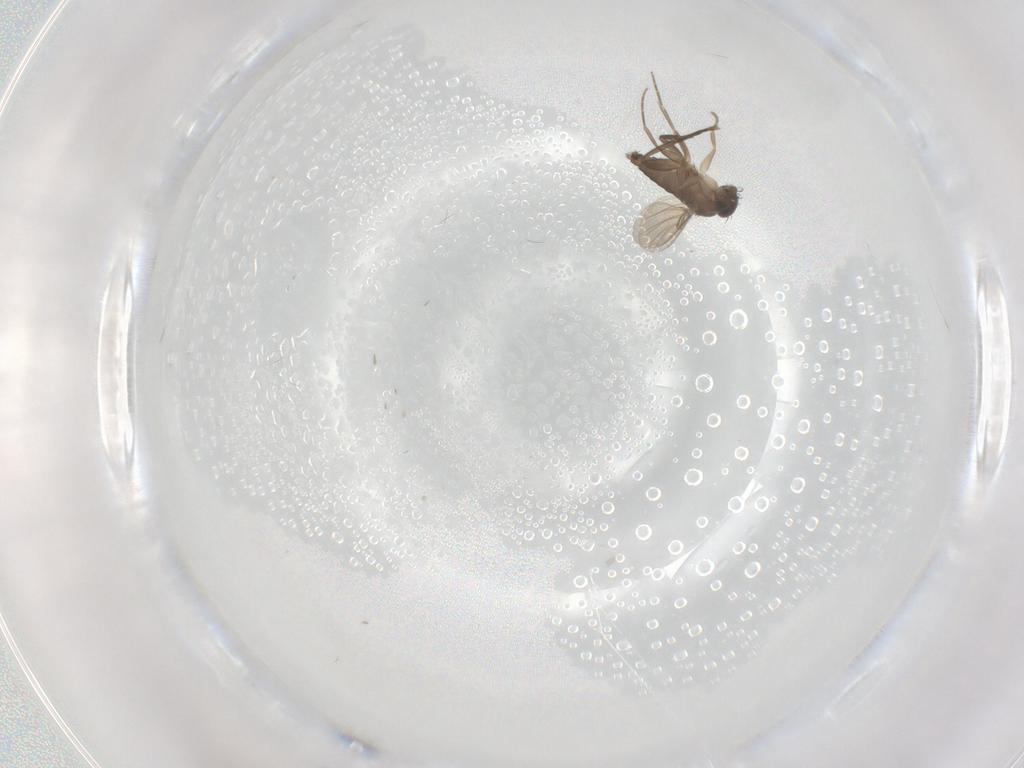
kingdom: Animalia
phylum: Arthropoda
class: Insecta
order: Diptera
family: Phoridae
